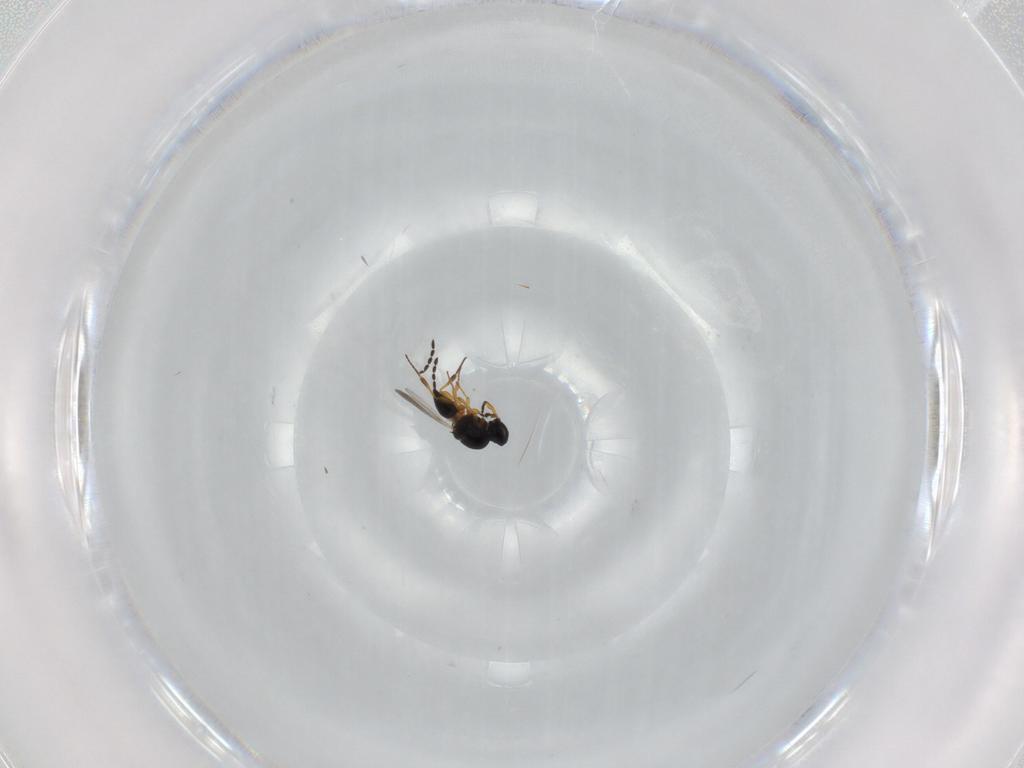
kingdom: Animalia
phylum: Arthropoda
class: Insecta
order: Hymenoptera
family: Platygastridae
